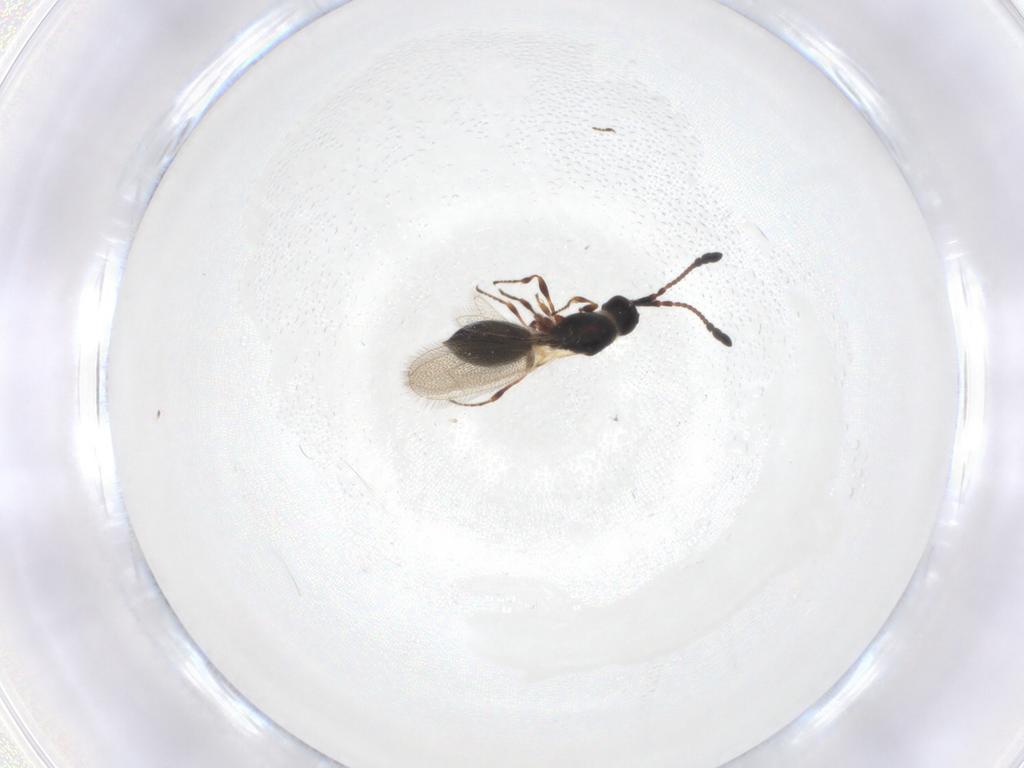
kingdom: Animalia
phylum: Arthropoda
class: Insecta
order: Hymenoptera
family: Diapriidae
